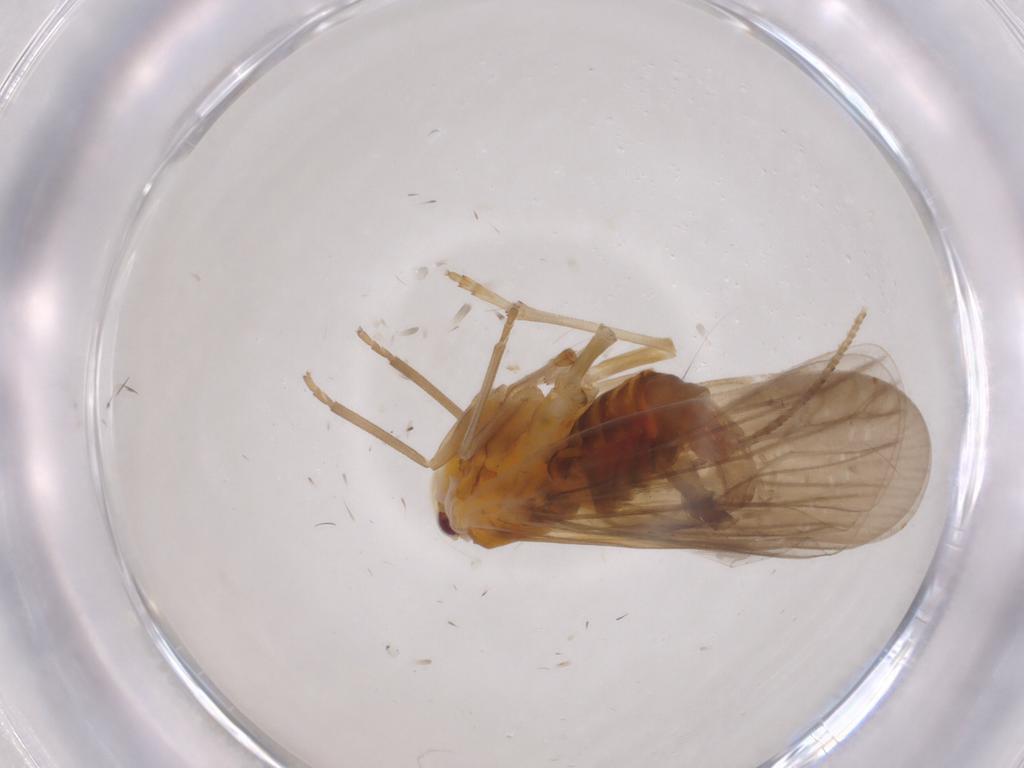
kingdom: Animalia
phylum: Arthropoda
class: Insecta
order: Hemiptera
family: Derbidae
